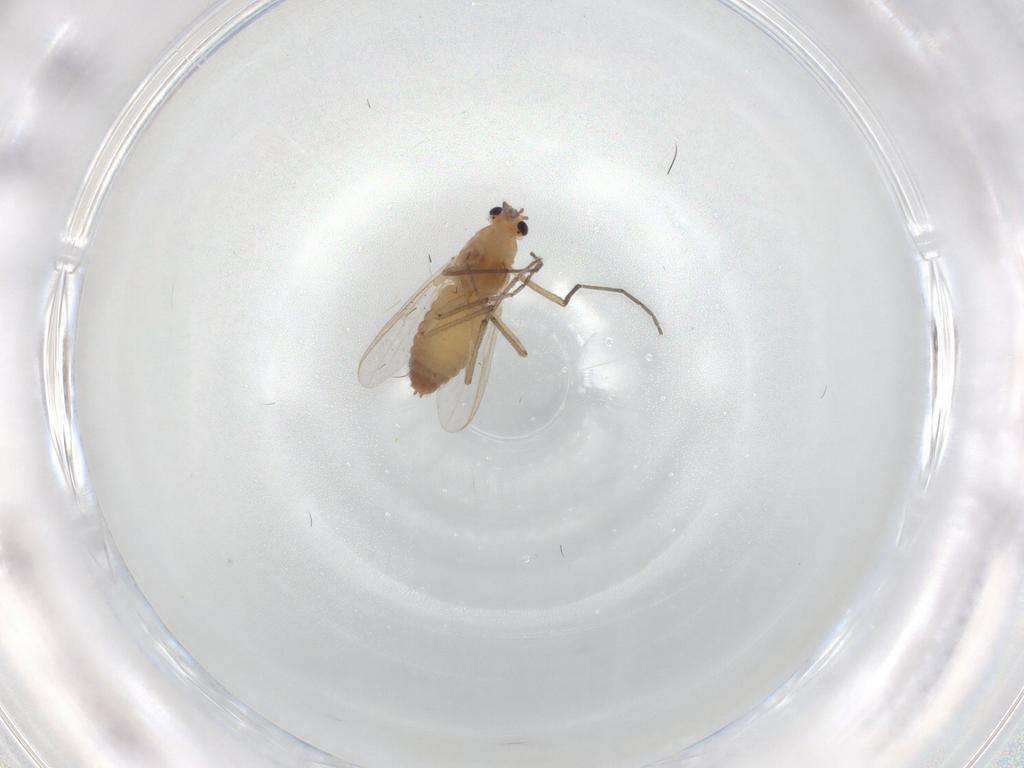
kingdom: Animalia
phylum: Arthropoda
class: Insecta
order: Diptera
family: Chironomidae
